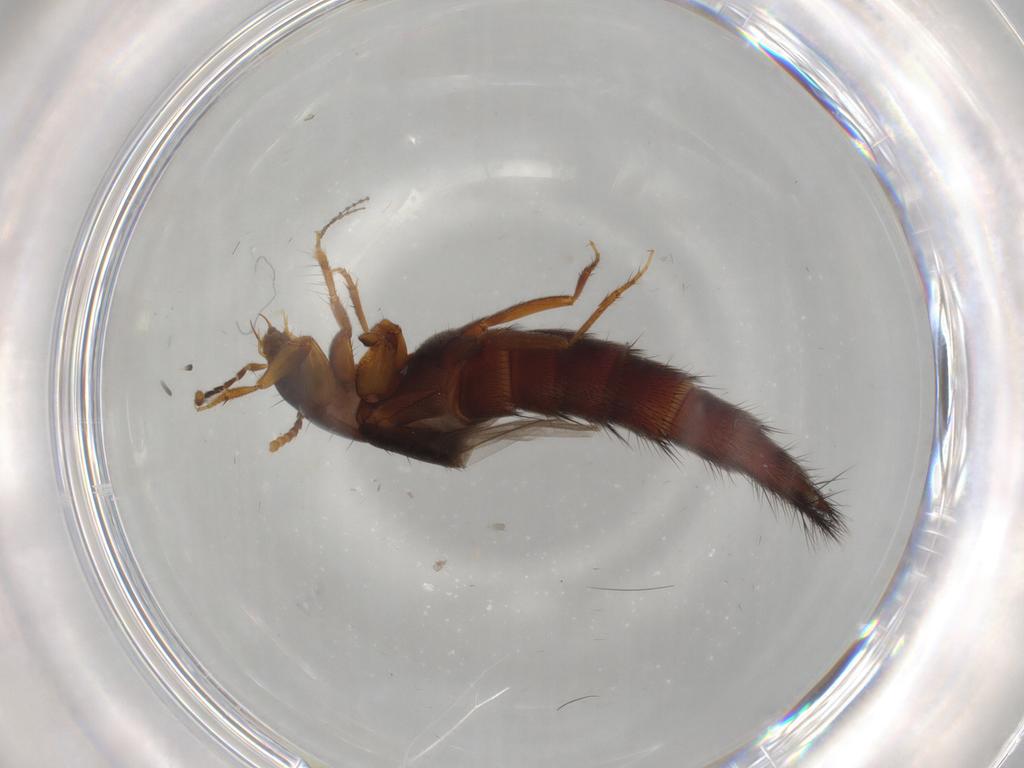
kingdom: Animalia
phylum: Arthropoda
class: Insecta
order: Coleoptera
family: Staphylinidae
